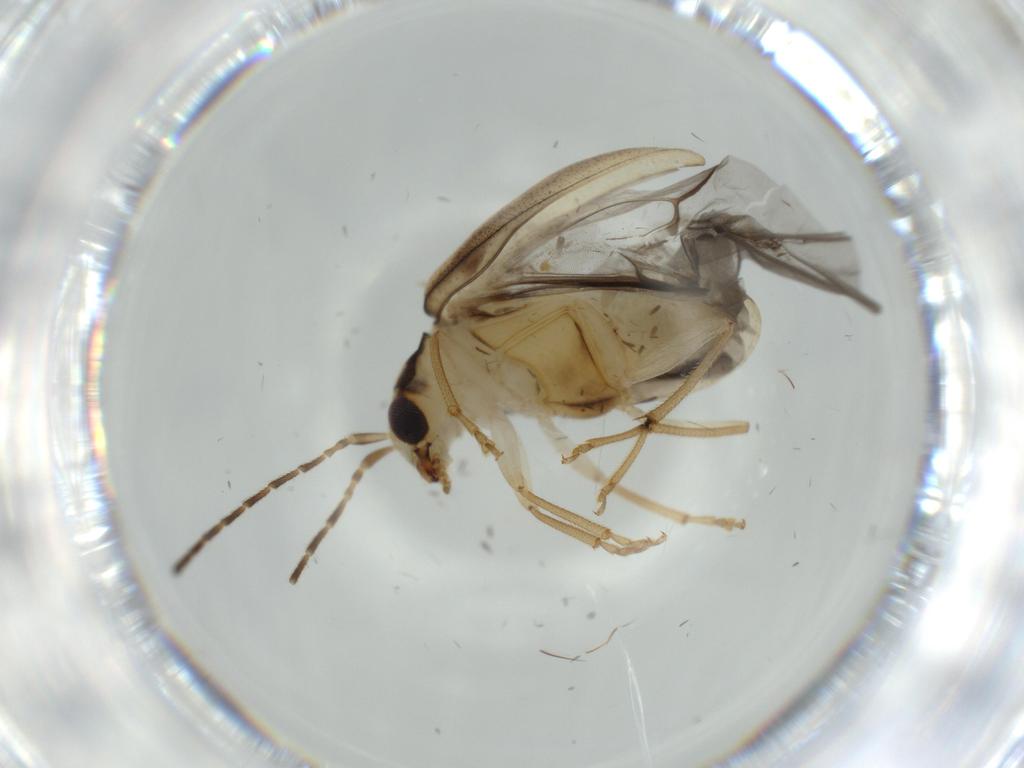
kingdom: Animalia
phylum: Arthropoda
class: Insecta
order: Coleoptera
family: Chrysomelidae
